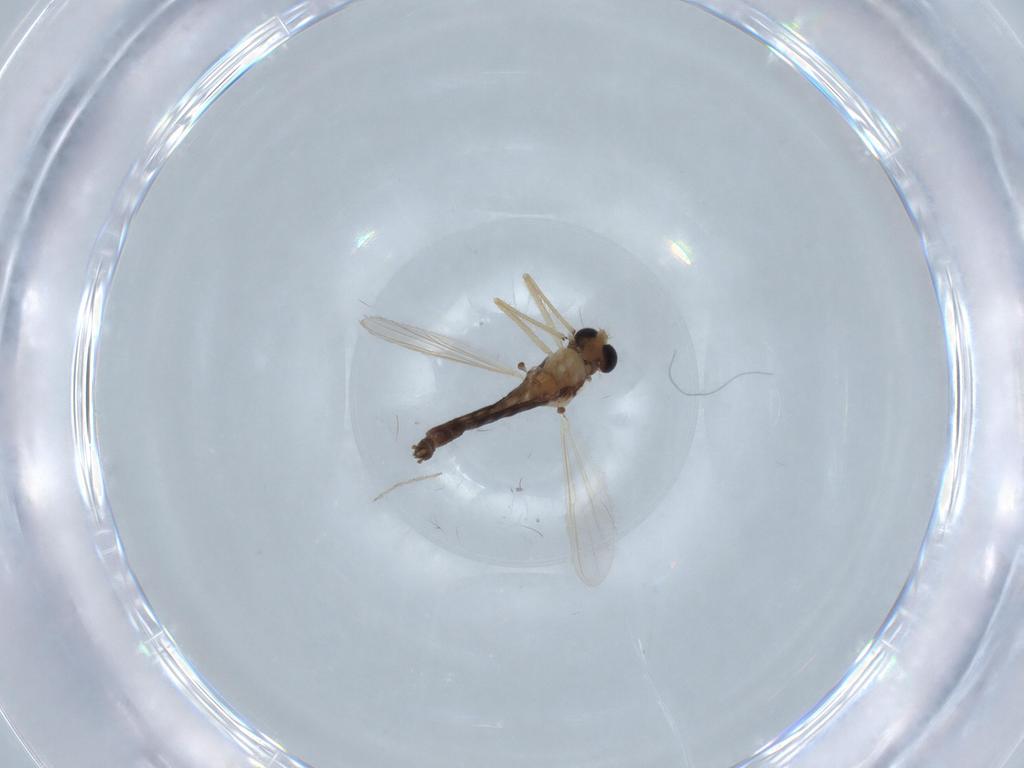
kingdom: Animalia
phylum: Arthropoda
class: Insecta
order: Diptera
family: Chironomidae
